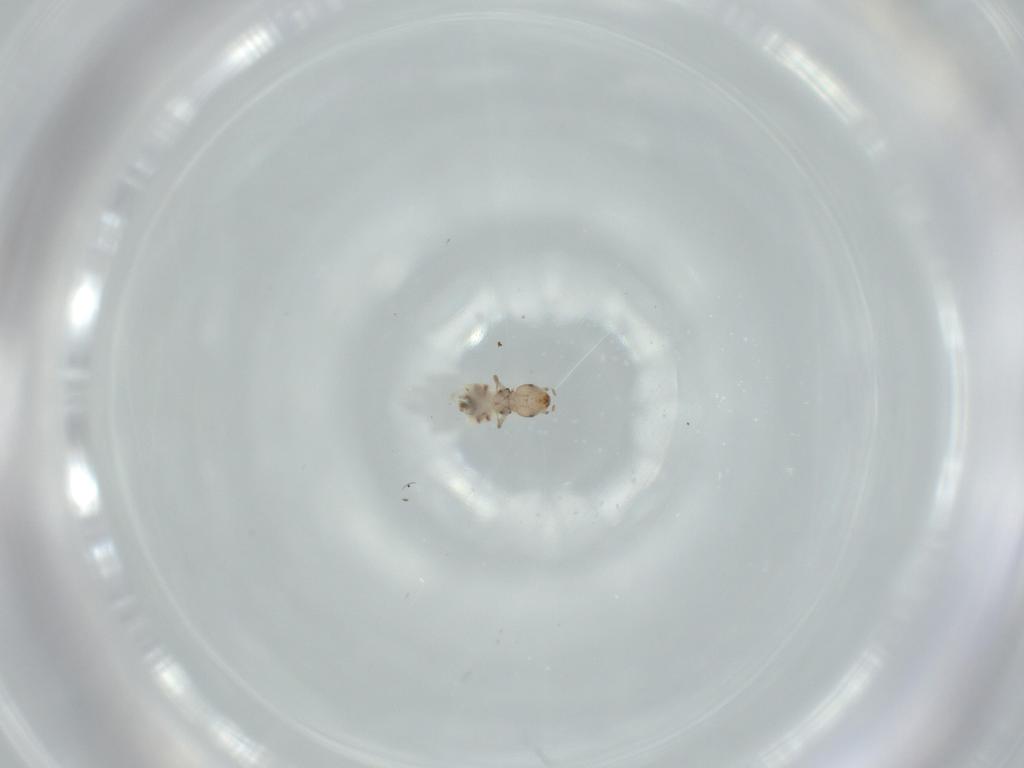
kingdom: Animalia
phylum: Arthropoda
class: Insecta
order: Psocodea
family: Liposcelididae
